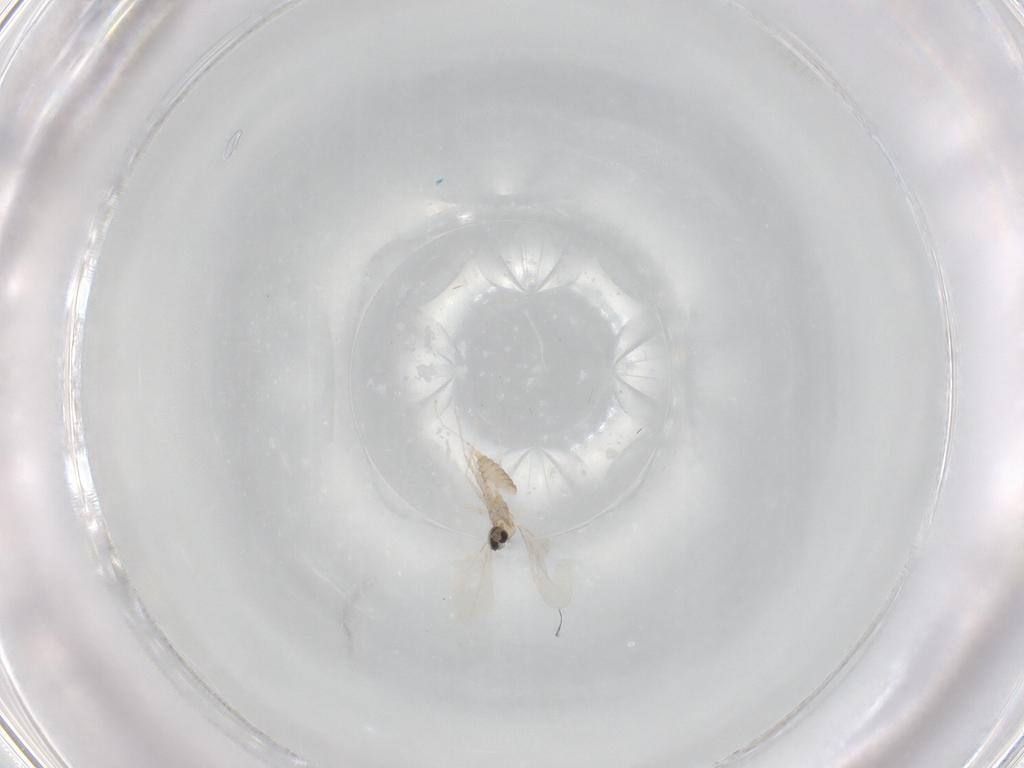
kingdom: Animalia
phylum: Arthropoda
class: Insecta
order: Diptera
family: Cecidomyiidae
